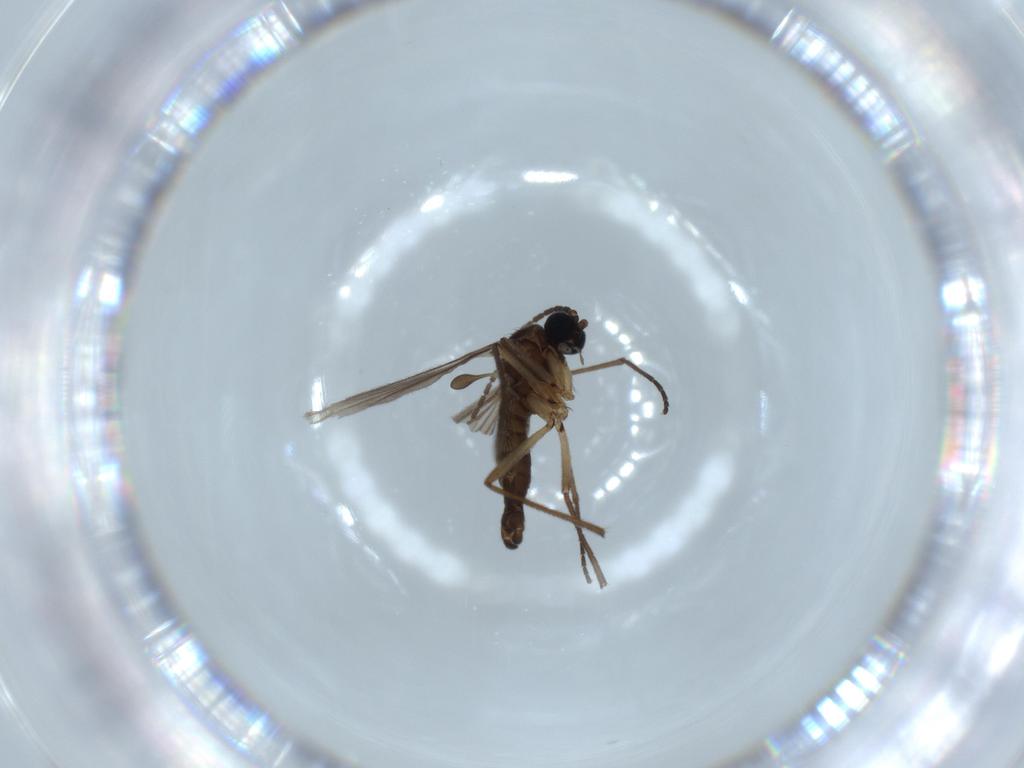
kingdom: Animalia
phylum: Arthropoda
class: Insecta
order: Diptera
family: Sciaridae
